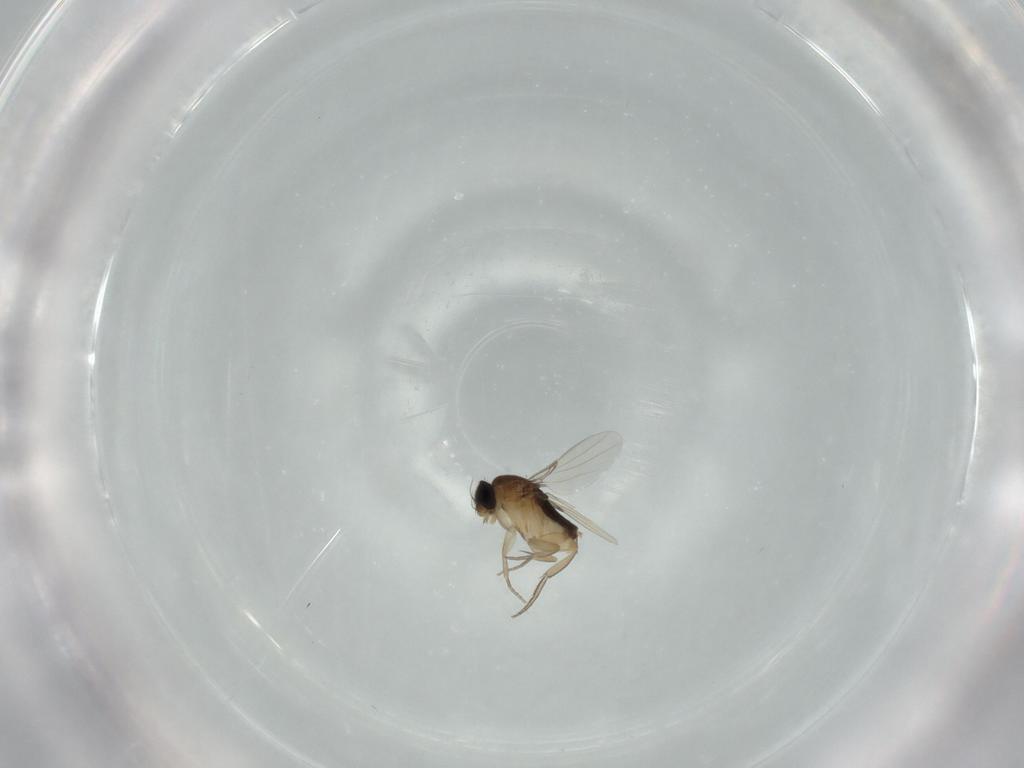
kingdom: Animalia
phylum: Arthropoda
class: Insecta
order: Diptera
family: Phoridae
